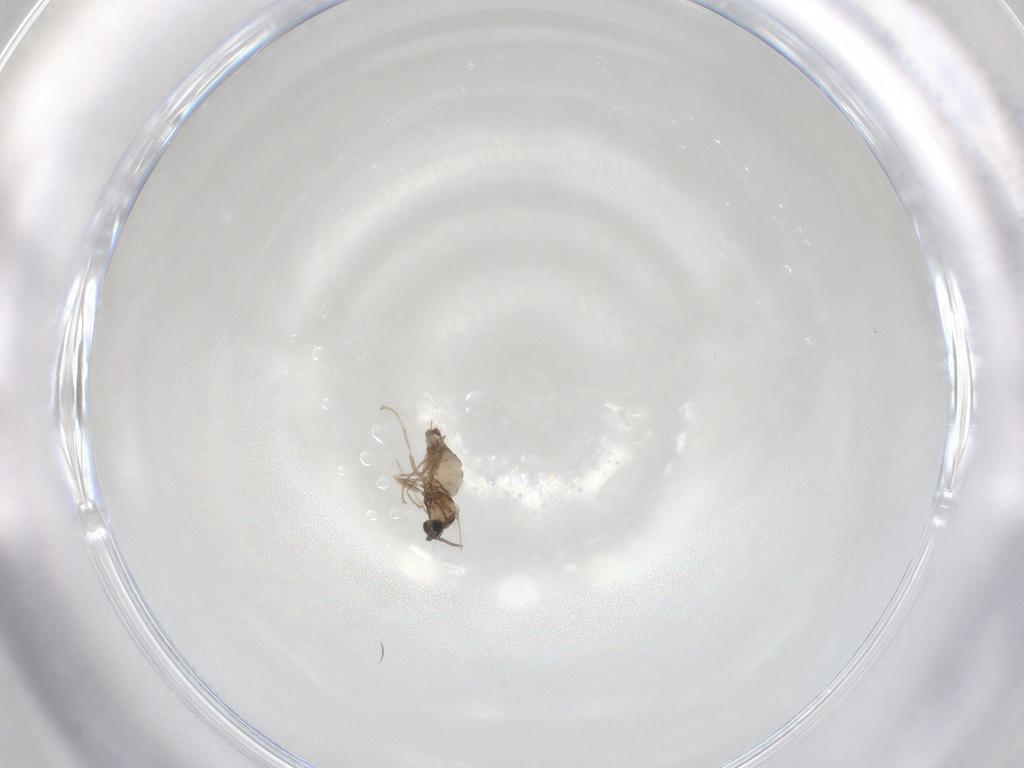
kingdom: Animalia
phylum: Arthropoda
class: Insecta
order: Diptera
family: Cecidomyiidae
